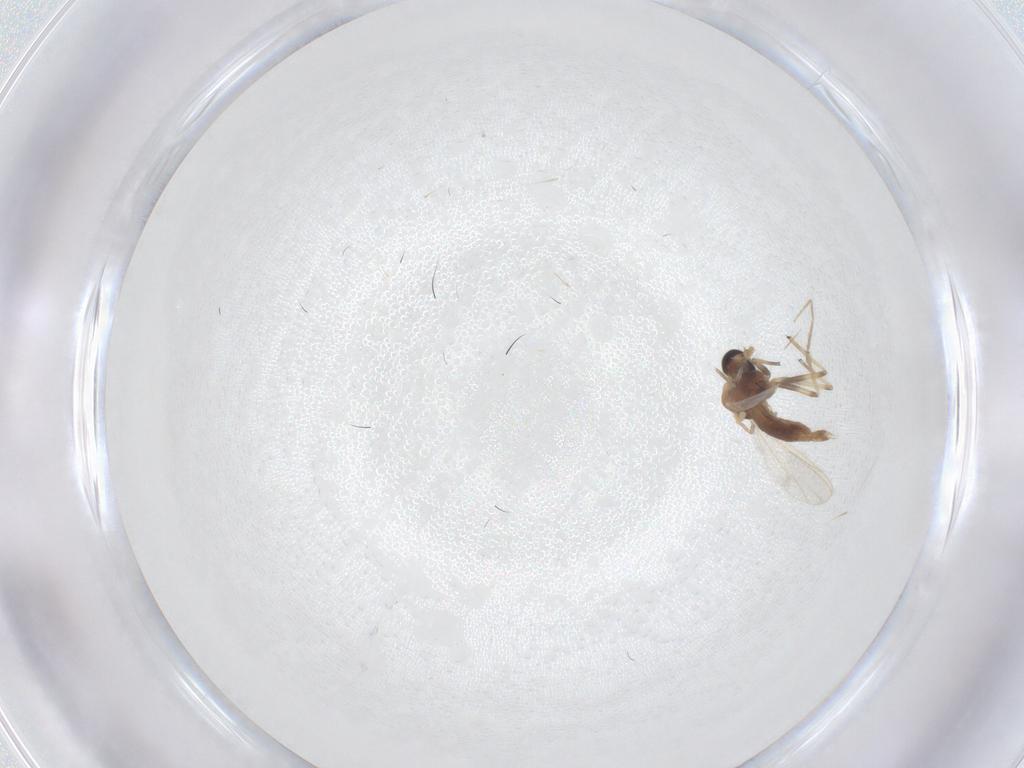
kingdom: Animalia
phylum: Arthropoda
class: Insecta
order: Diptera
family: Chironomidae
